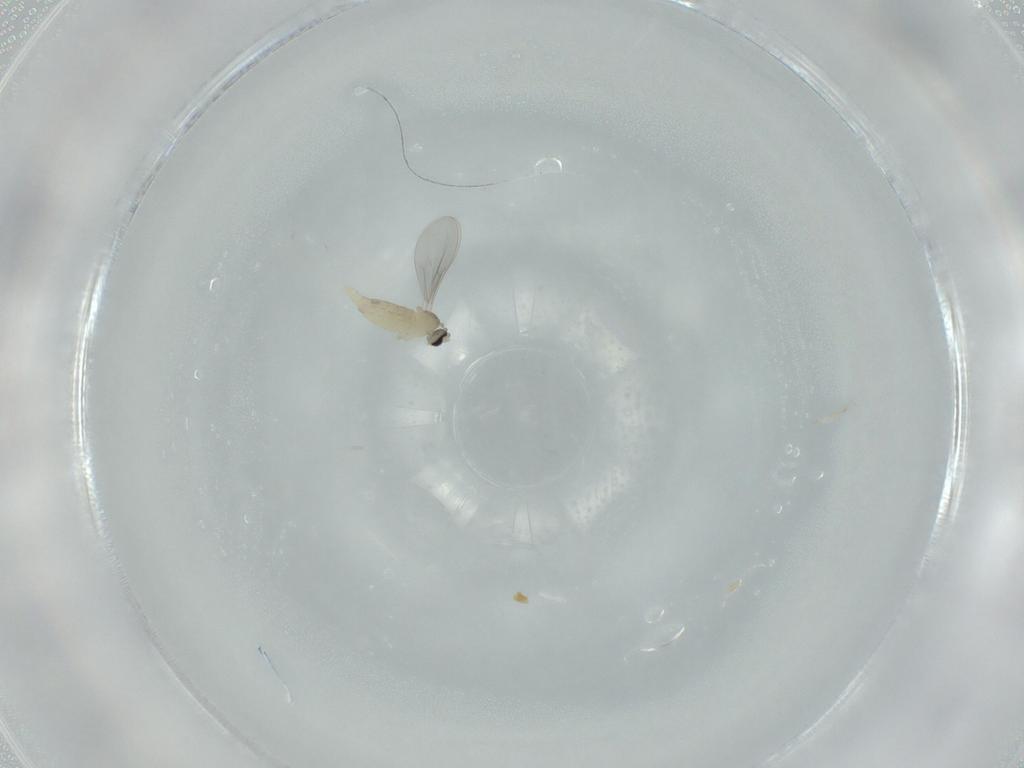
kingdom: Animalia
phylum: Arthropoda
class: Insecta
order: Diptera
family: Cecidomyiidae
